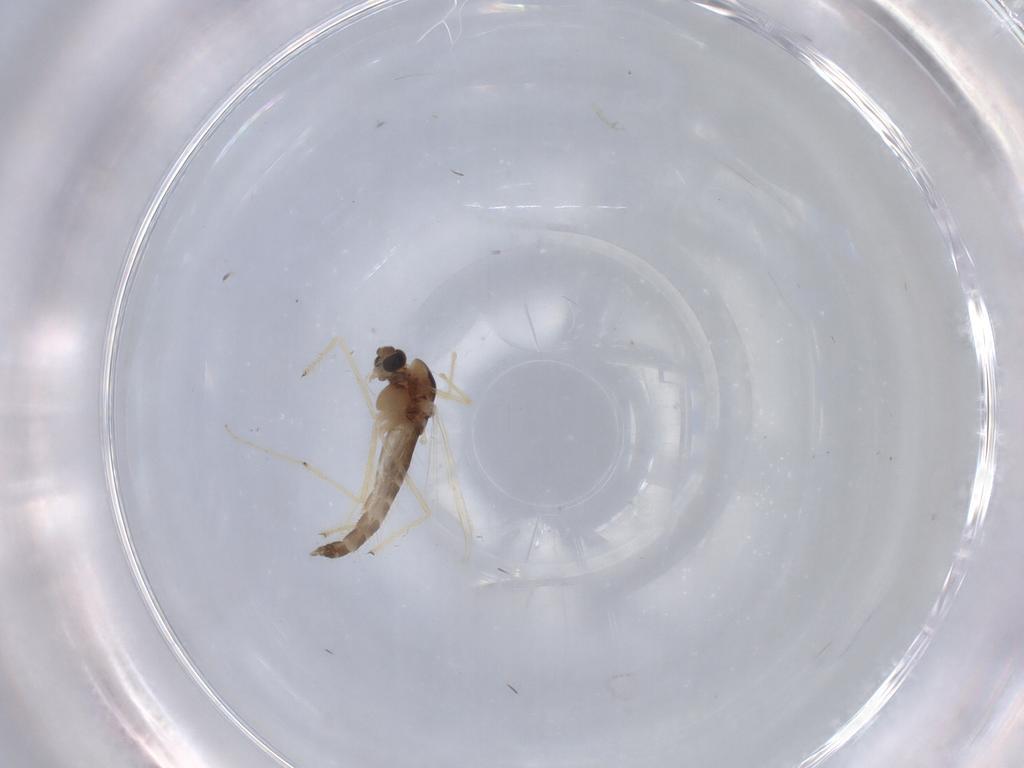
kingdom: Animalia
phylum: Arthropoda
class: Insecta
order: Diptera
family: Chironomidae
